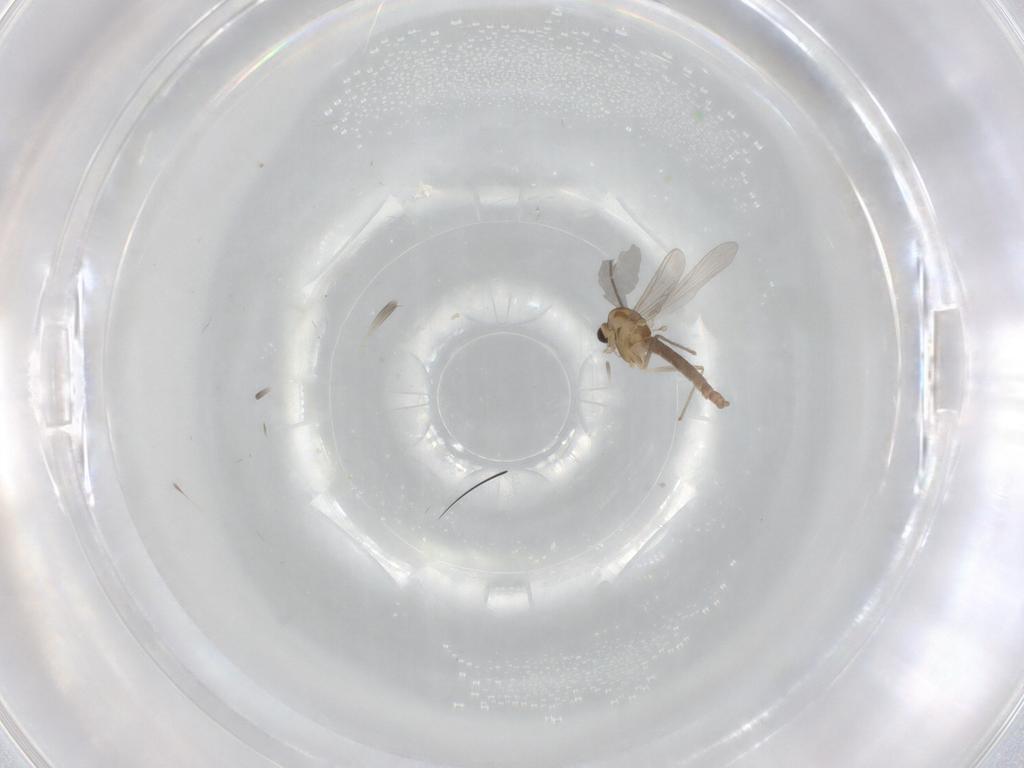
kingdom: Animalia
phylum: Arthropoda
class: Insecta
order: Diptera
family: Chironomidae
